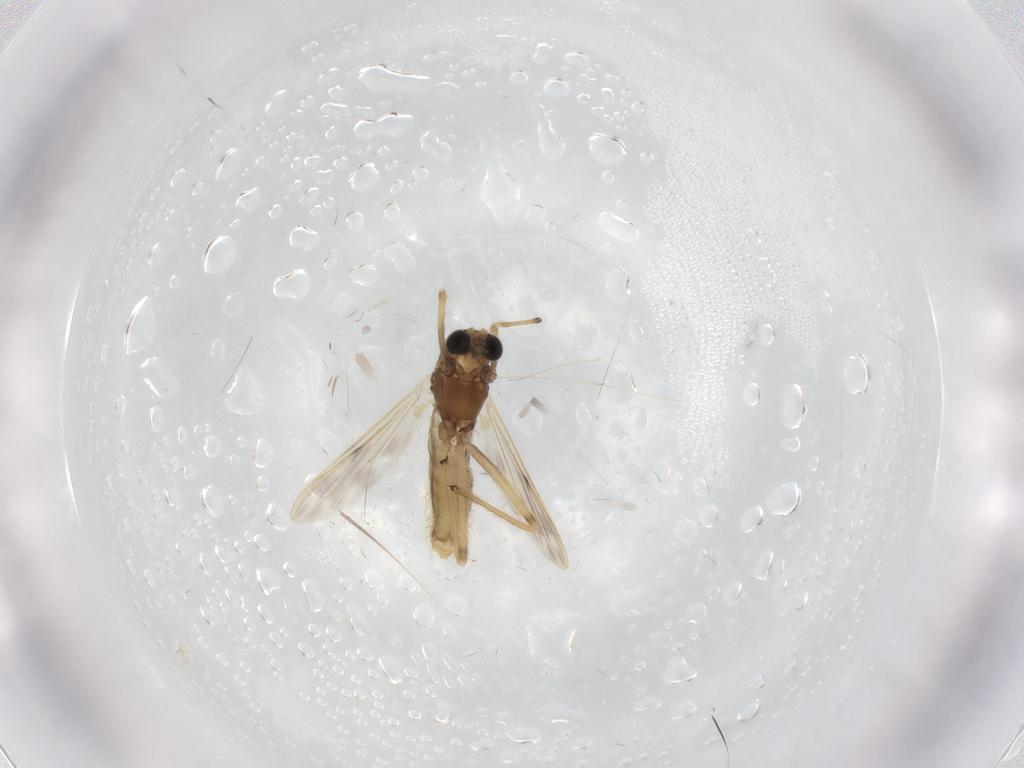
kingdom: Animalia
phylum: Arthropoda
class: Insecta
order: Diptera
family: Chironomidae
